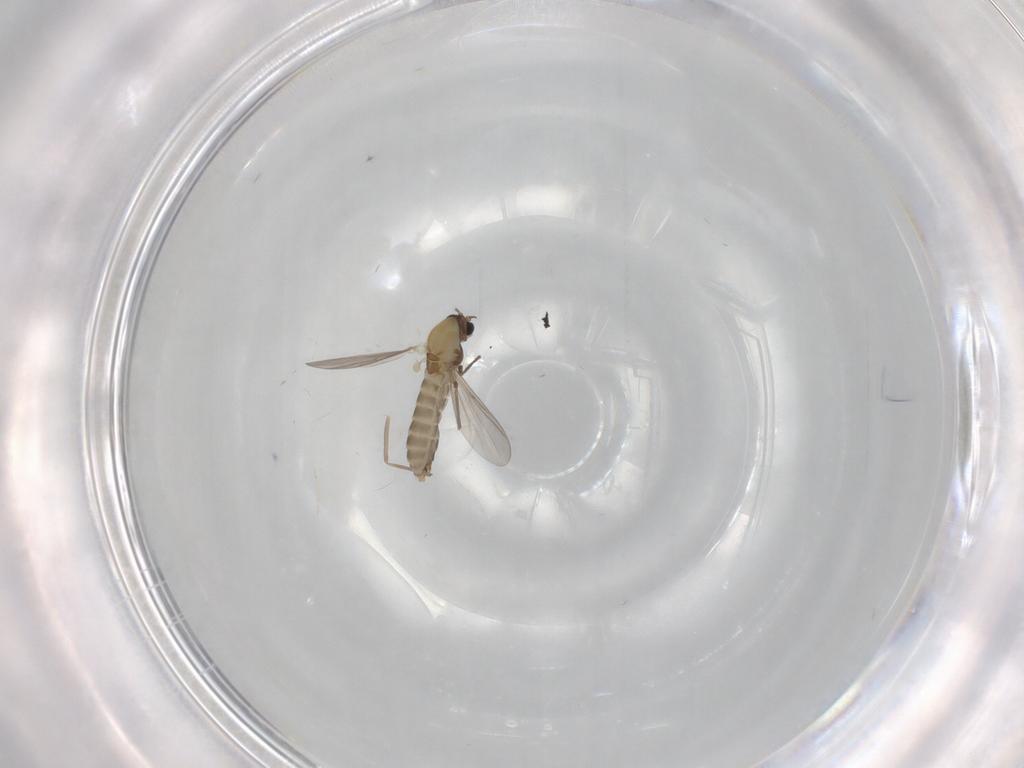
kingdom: Animalia
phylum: Arthropoda
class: Insecta
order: Diptera
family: Chironomidae
